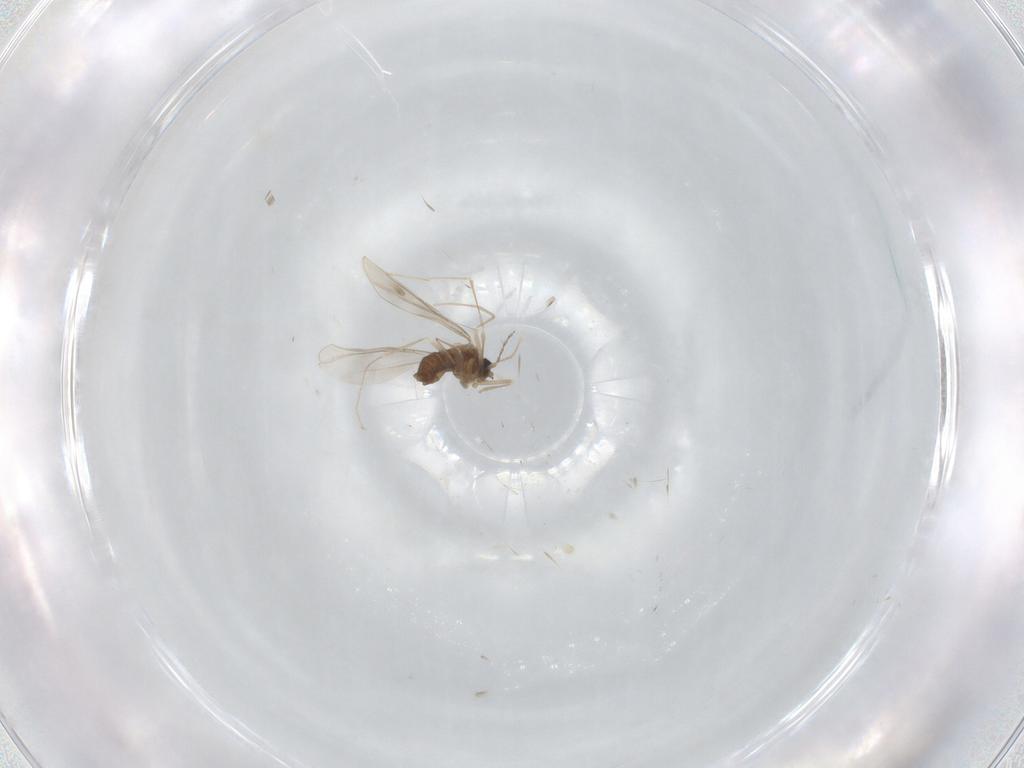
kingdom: Animalia
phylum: Arthropoda
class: Insecta
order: Diptera
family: Cecidomyiidae
